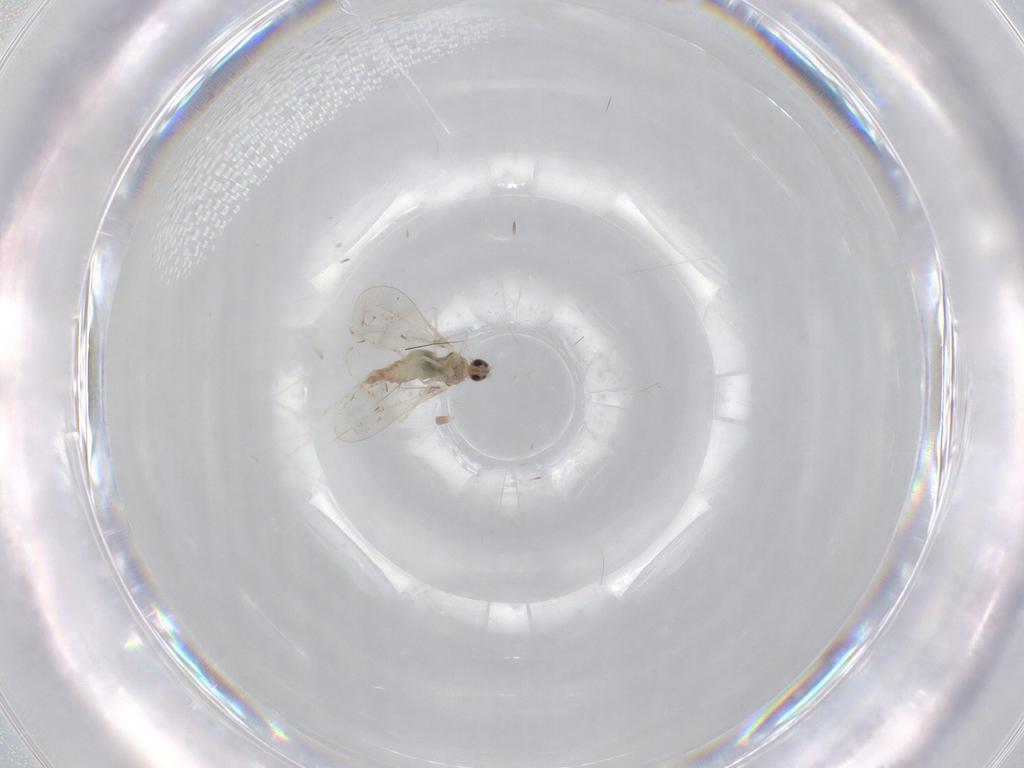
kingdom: Animalia
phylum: Arthropoda
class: Insecta
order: Diptera
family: Cecidomyiidae
